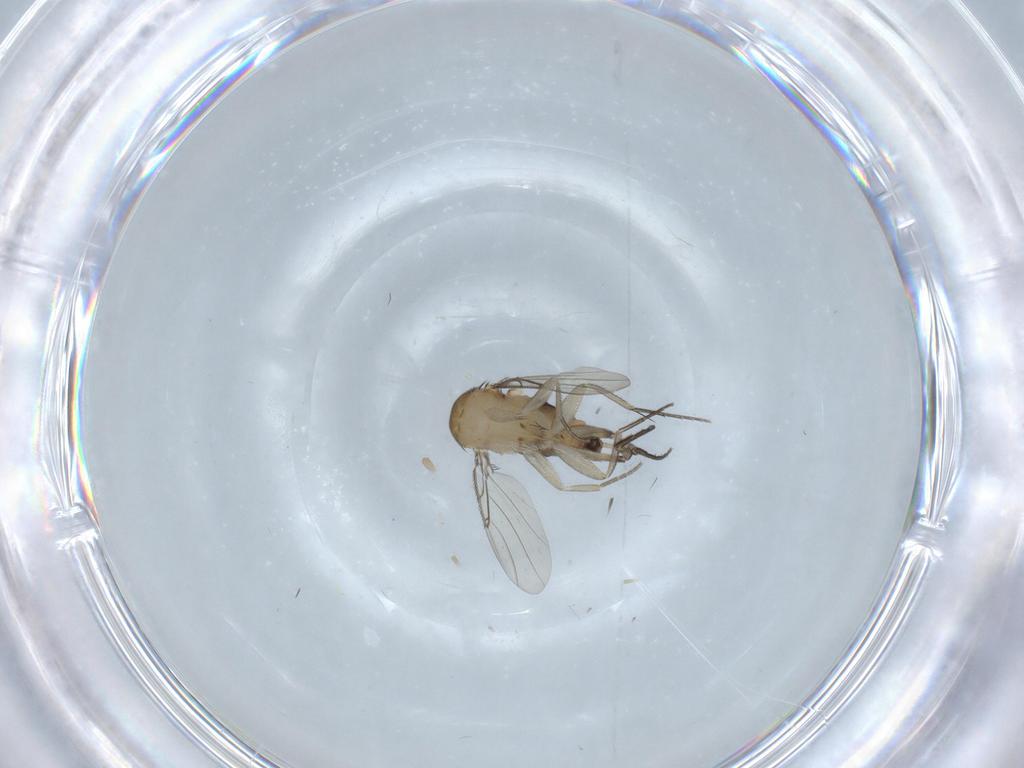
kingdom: Animalia
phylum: Arthropoda
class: Insecta
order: Diptera
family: Phoridae
